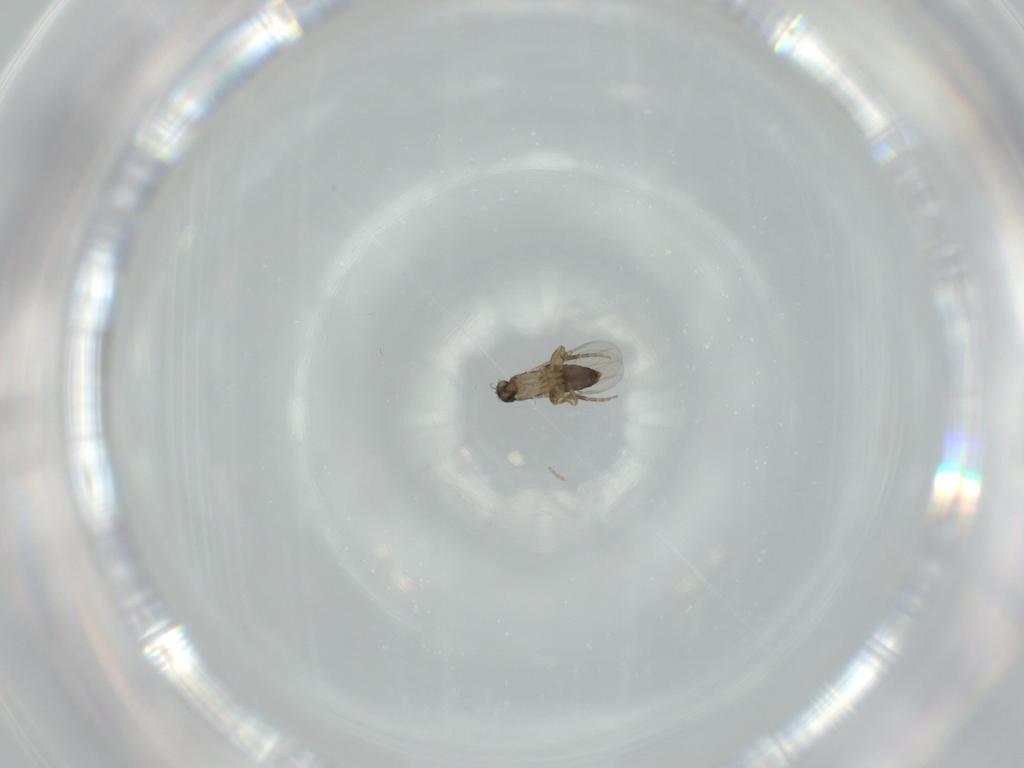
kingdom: Animalia
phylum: Arthropoda
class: Insecta
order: Diptera
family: Phoridae
